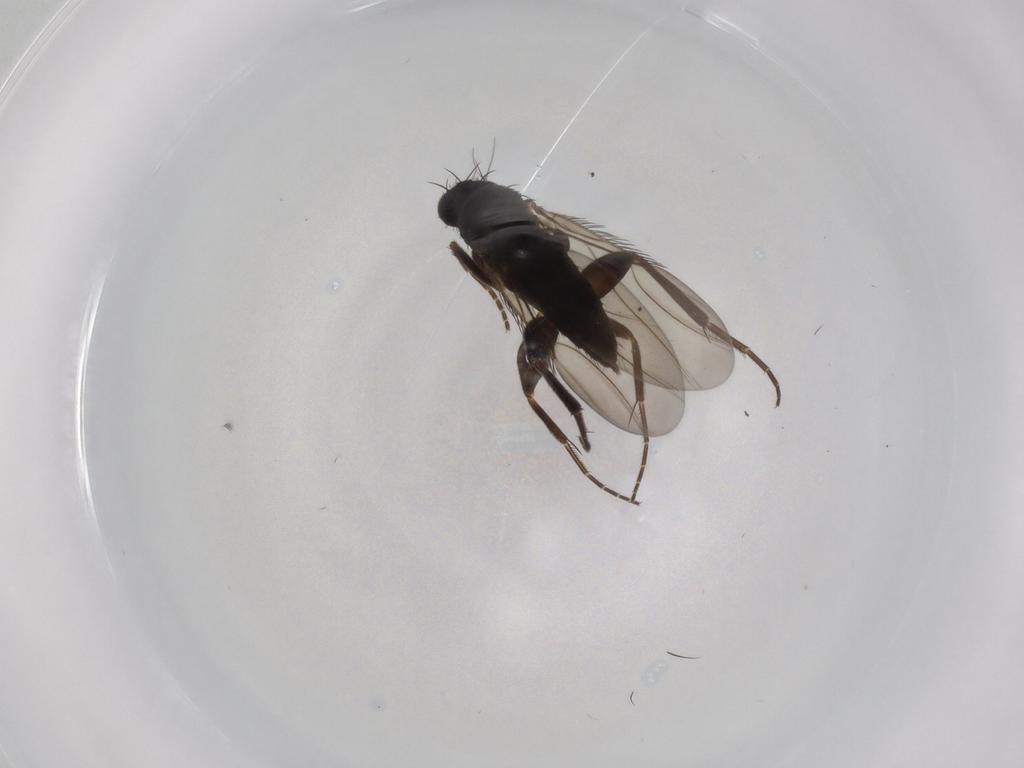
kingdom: Animalia
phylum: Arthropoda
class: Insecta
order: Diptera
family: Phoridae
